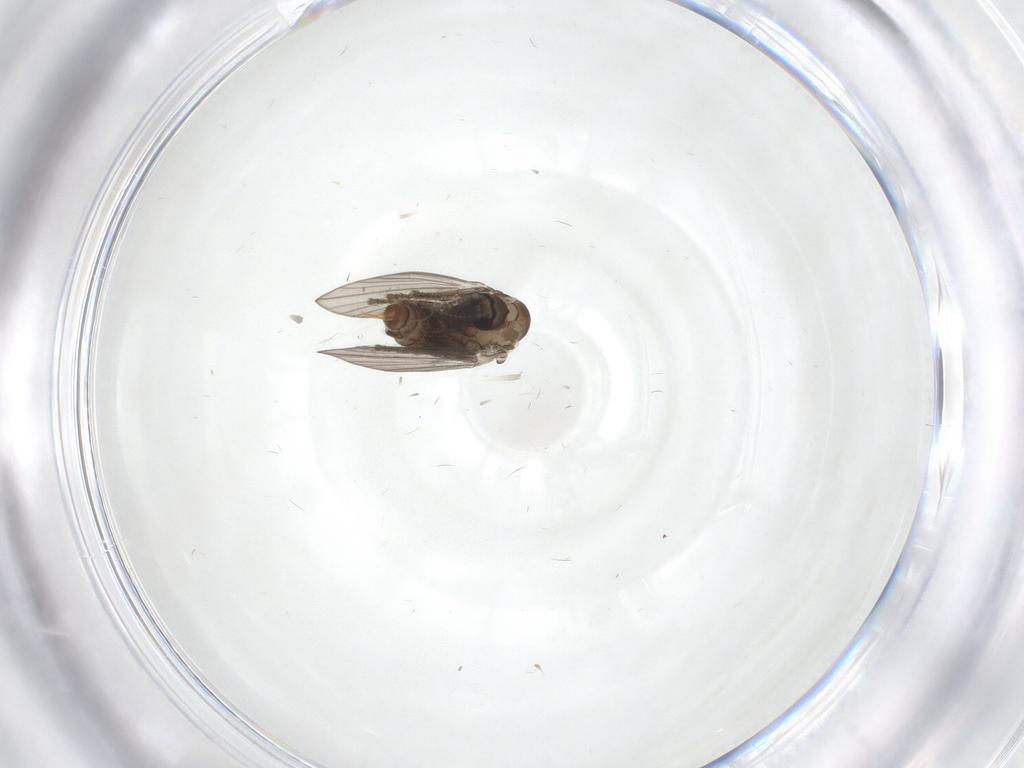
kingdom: Animalia
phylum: Arthropoda
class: Insecta
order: Diptera
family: Psychodidae
